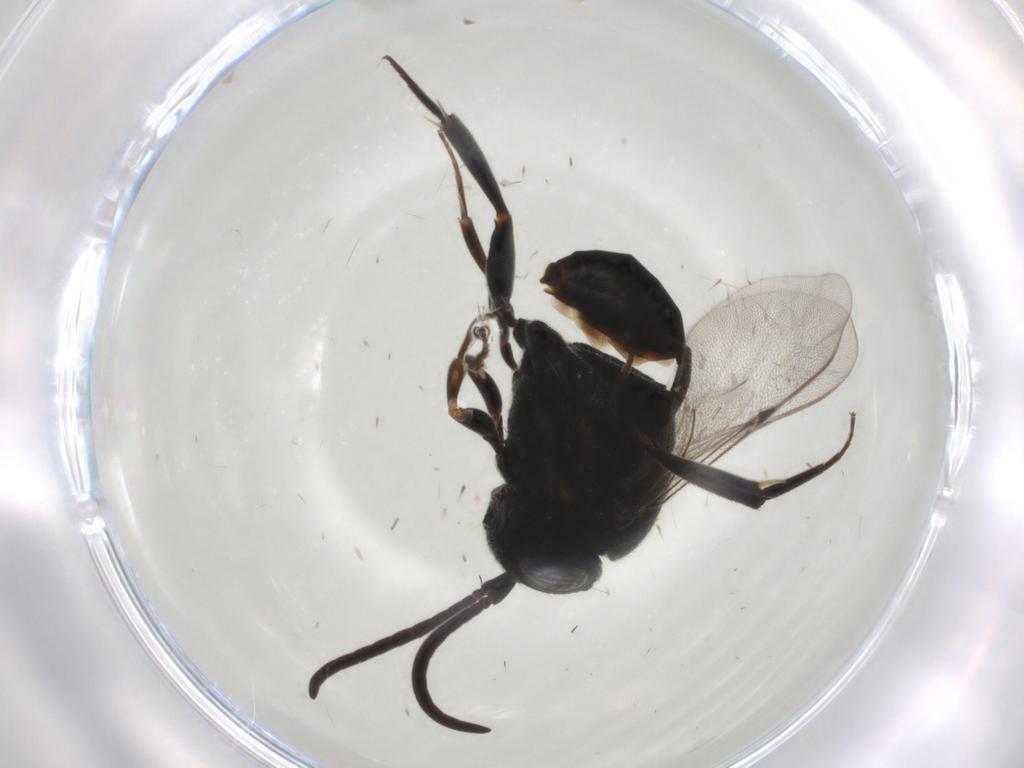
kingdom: Animalia
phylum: Arthropoda
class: Insecta
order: Hymenoptera
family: Evaniidae
